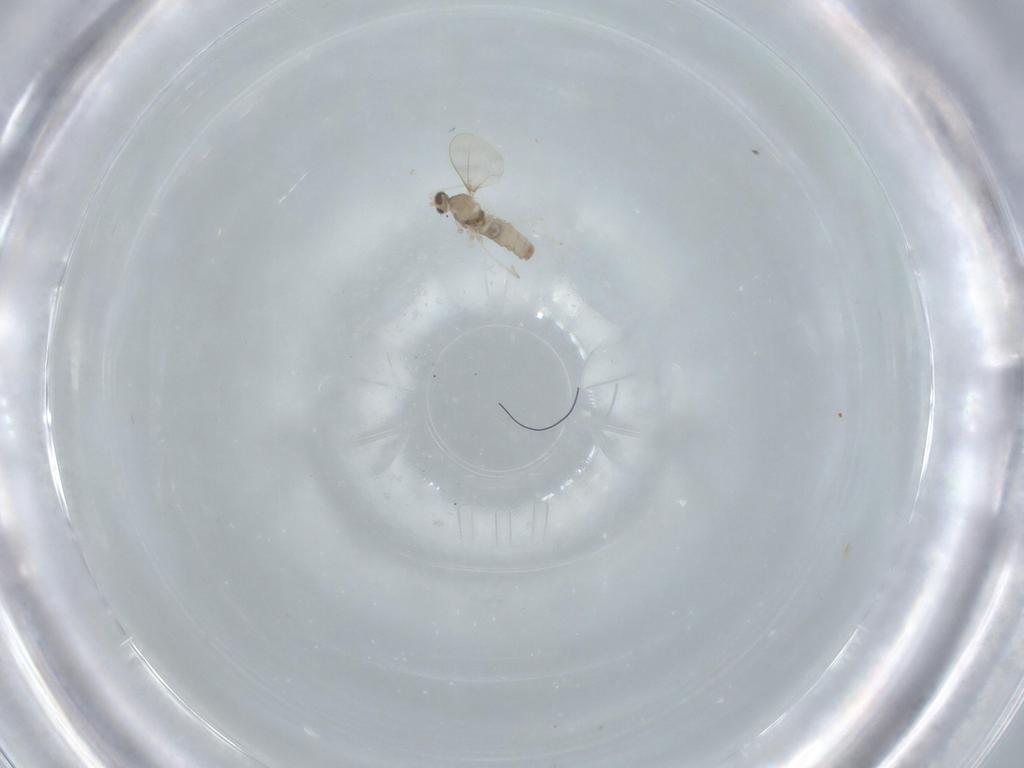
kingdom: Animalia
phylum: Arthropoda
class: Insecta
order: Diptera
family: Cecidomyiidae
